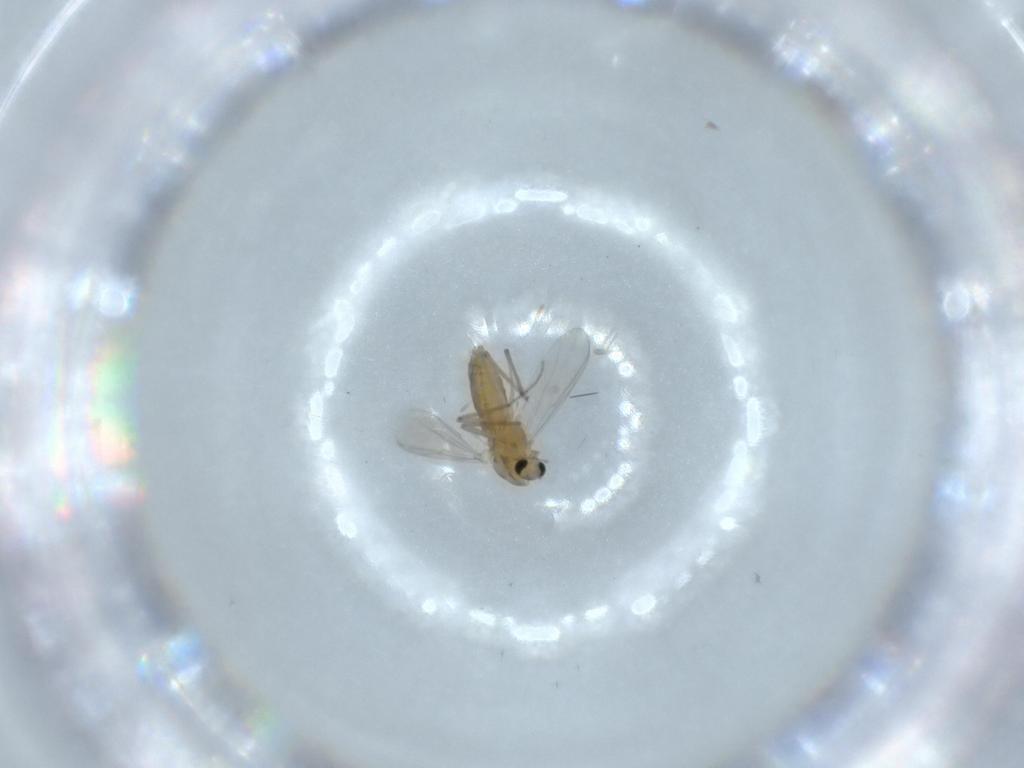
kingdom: Animalia
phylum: Arthropoda
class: Insecta
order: Diptera
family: Chironomidae
